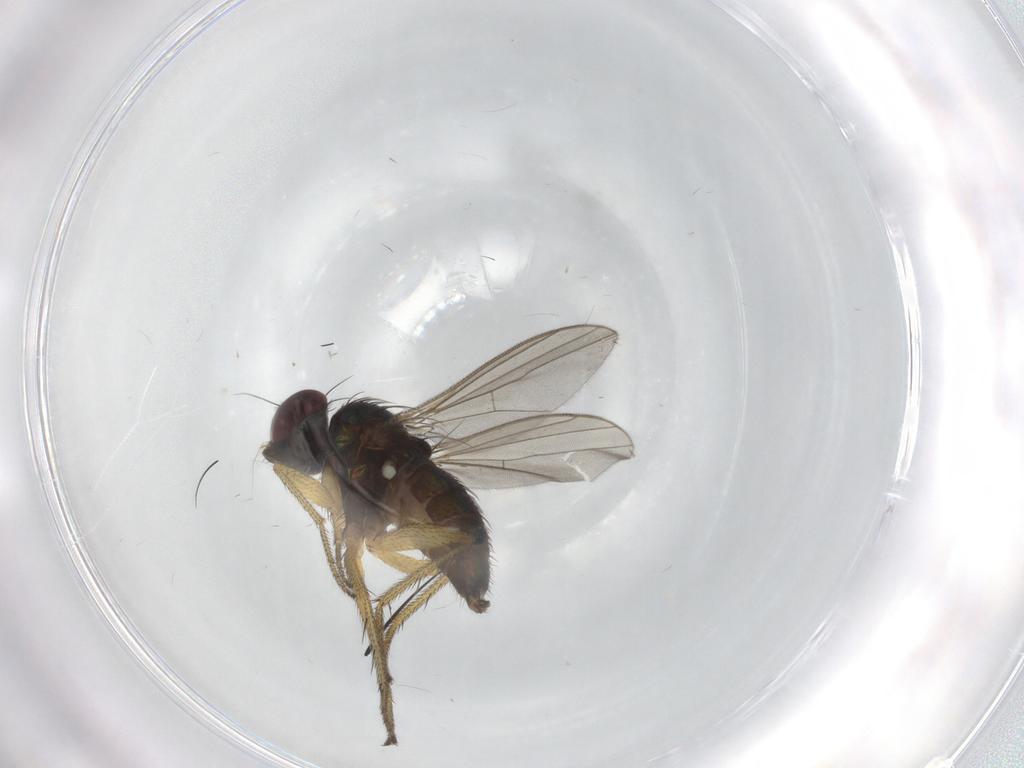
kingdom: Animalia
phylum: Arthropoda
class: Insecta
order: Diptera
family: Dolichopodidae
